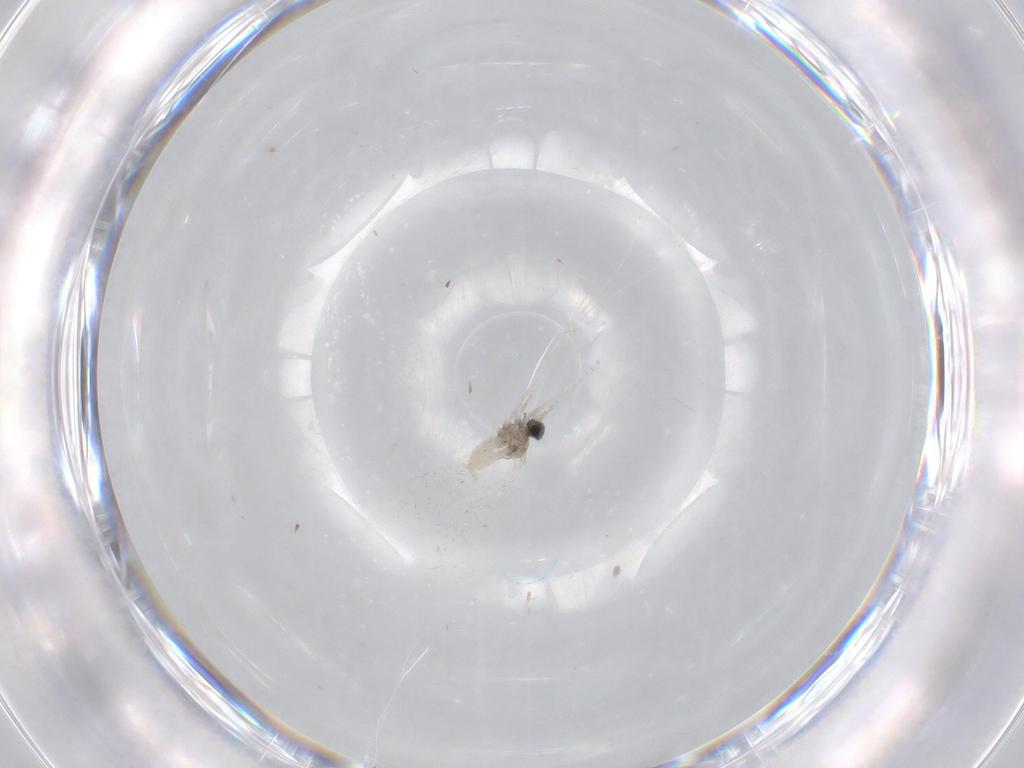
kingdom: Animalia
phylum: Arthropoda
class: Insecta
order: Diptera
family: Cecidomyiidae
